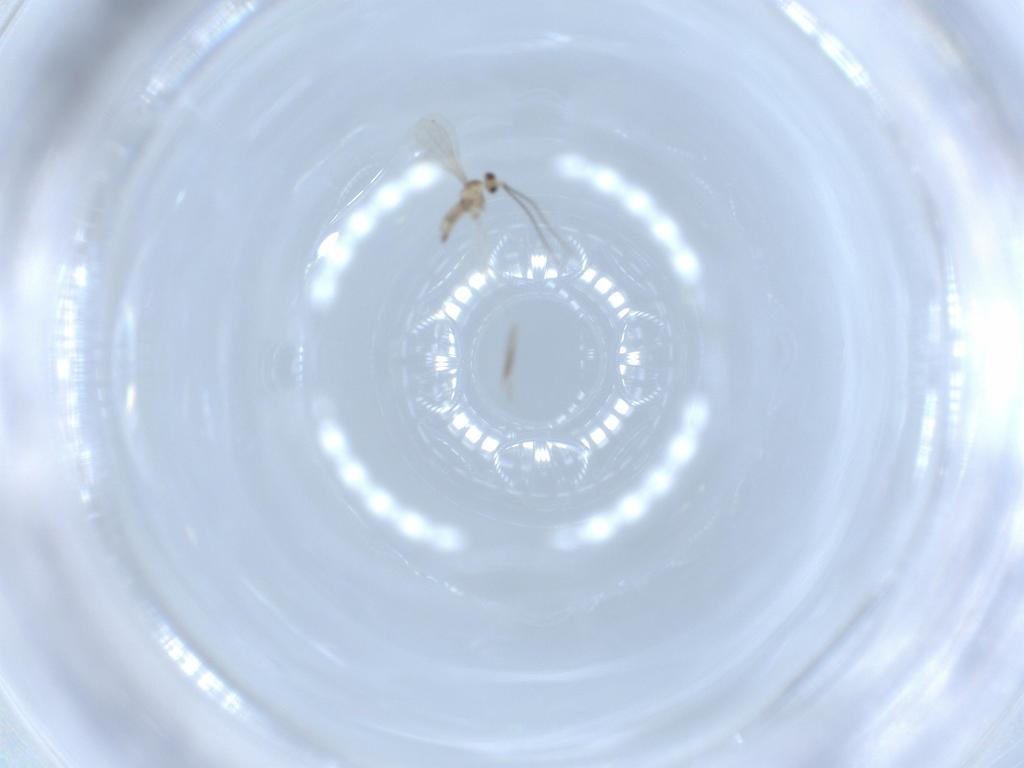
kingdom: Animalia
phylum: Arthropoda
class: Insecta
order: Diptera
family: Cecidomyiidae
